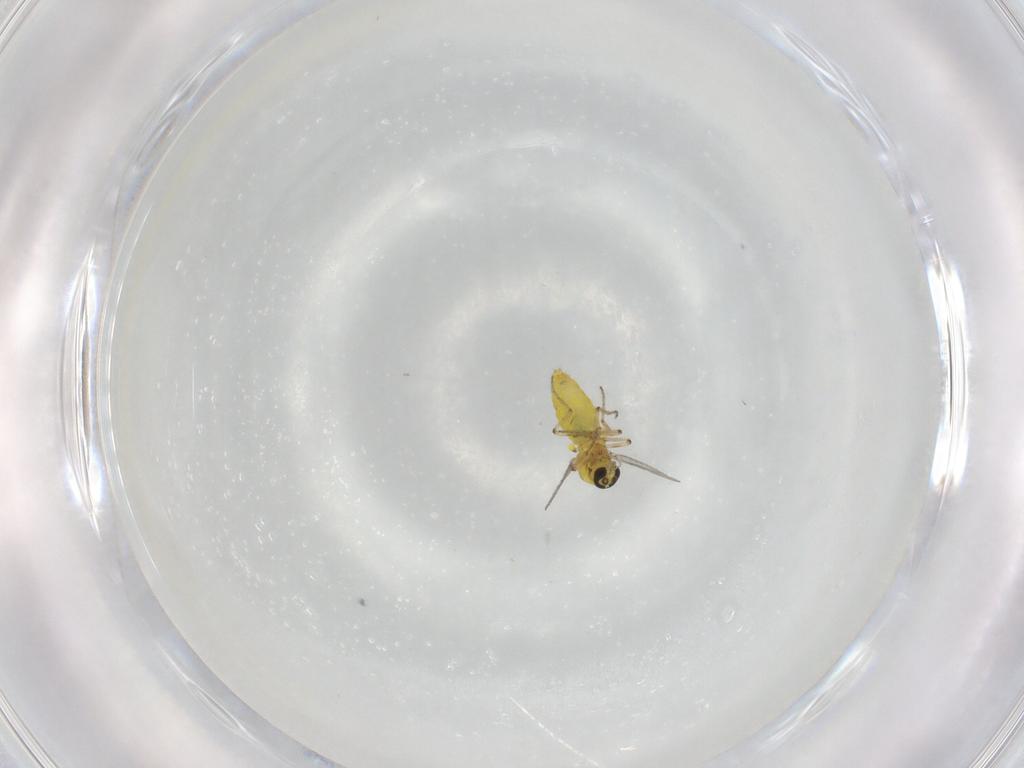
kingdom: Animalia
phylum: Arthropoda
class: Insecta
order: Diptera
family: Ceratopogonidae
